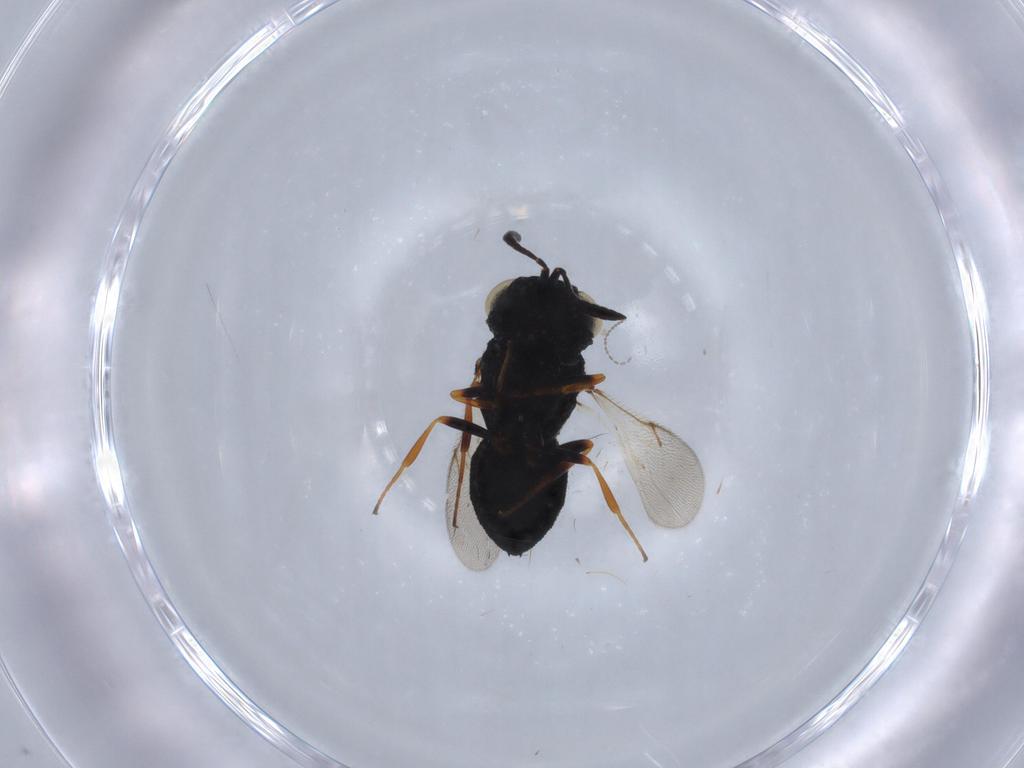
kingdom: Animalia
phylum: Arthropoda
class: Insecta
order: Hymenoptera
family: Scelionidae
